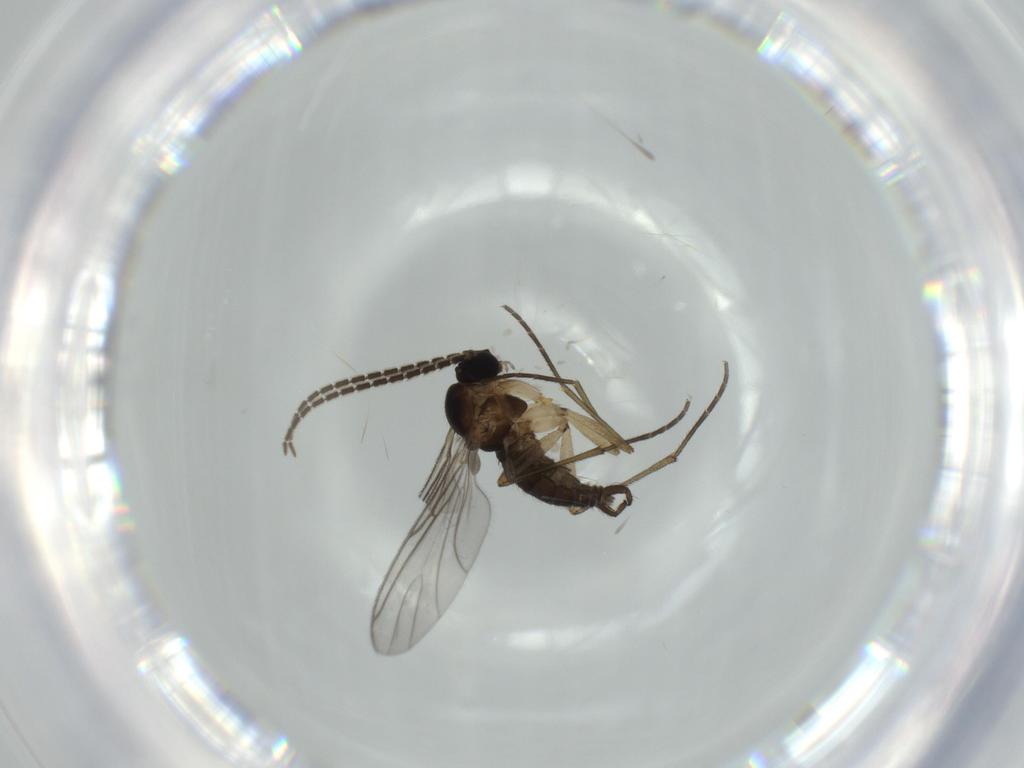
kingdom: Animalia
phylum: Arthropoda
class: Insecta
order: Diptera
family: Sciaridae
